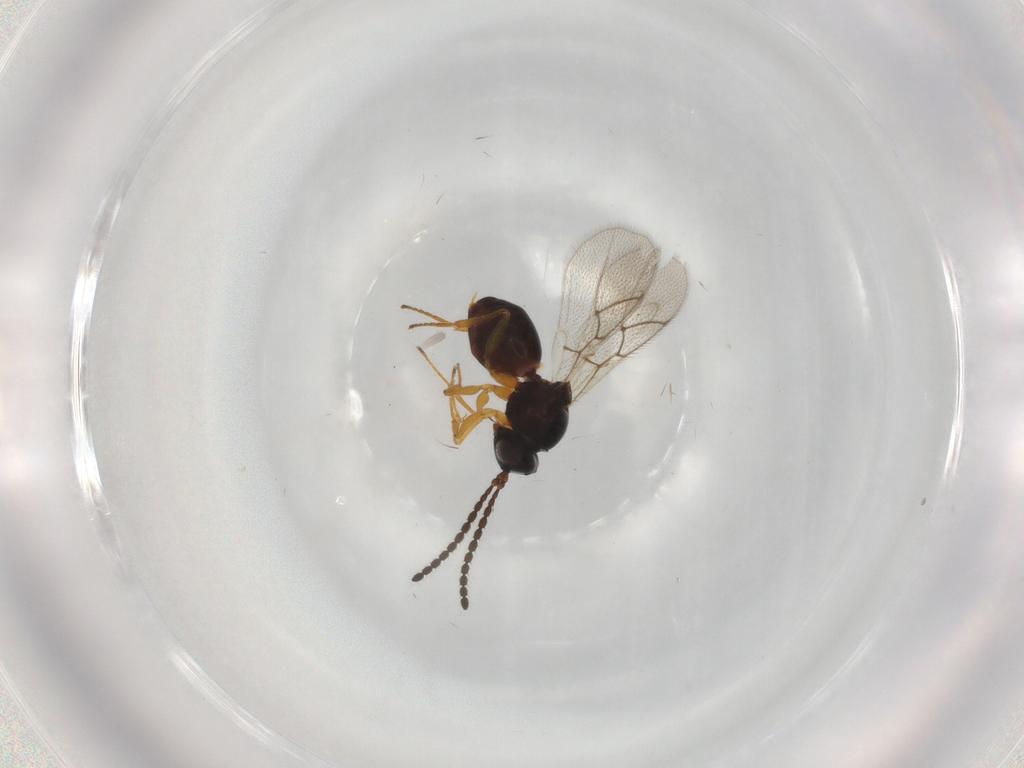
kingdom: Animalia
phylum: Arthropoda
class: Insecta
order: Hymenoptera
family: Figitidae
